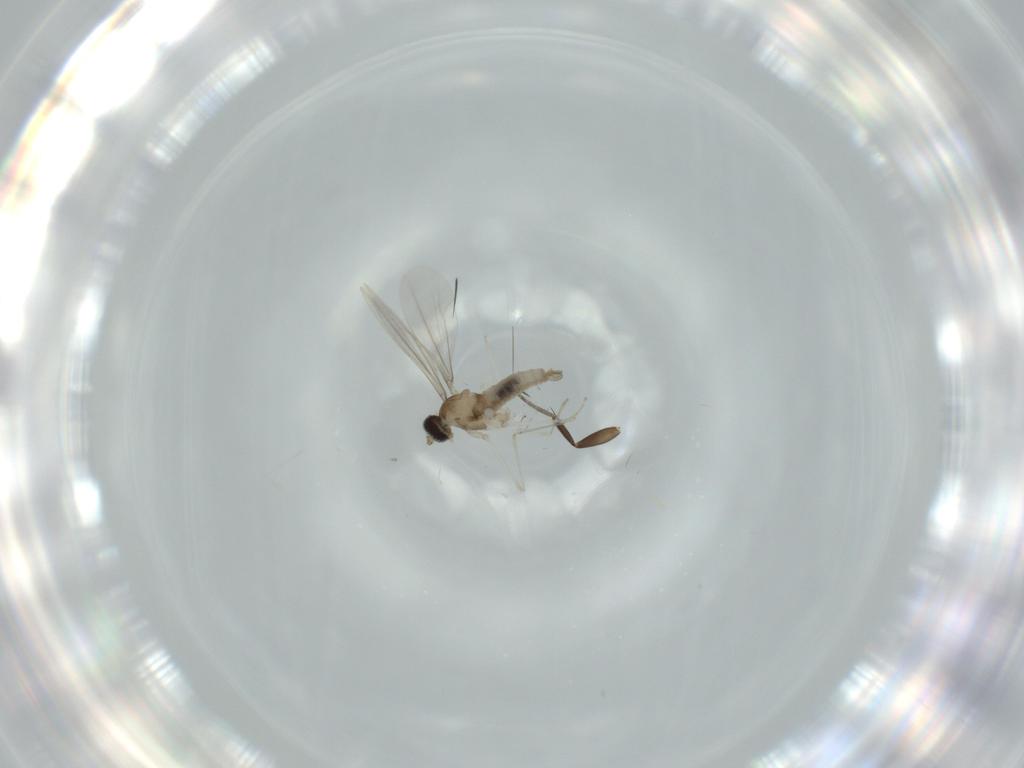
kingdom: Animalia
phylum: Arthropoda
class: Insecta
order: Diptera
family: Cecidomyiidae
